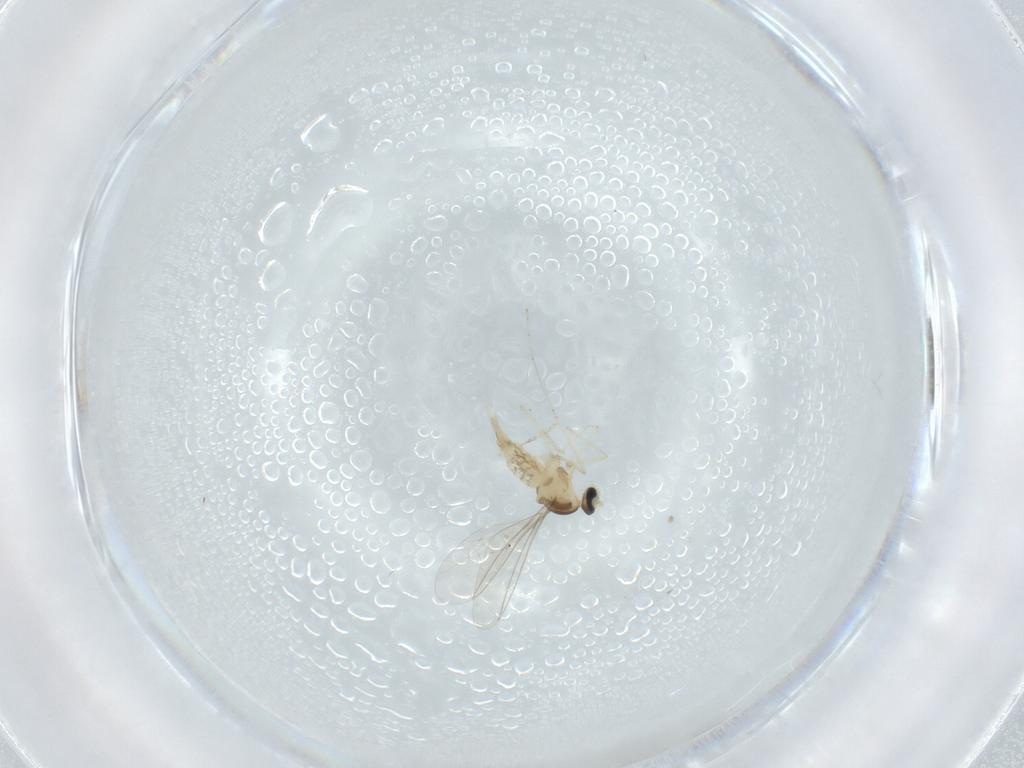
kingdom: Animalia
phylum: Arthropoda
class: Insecta
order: Diptera
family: Cecidomyiidae
